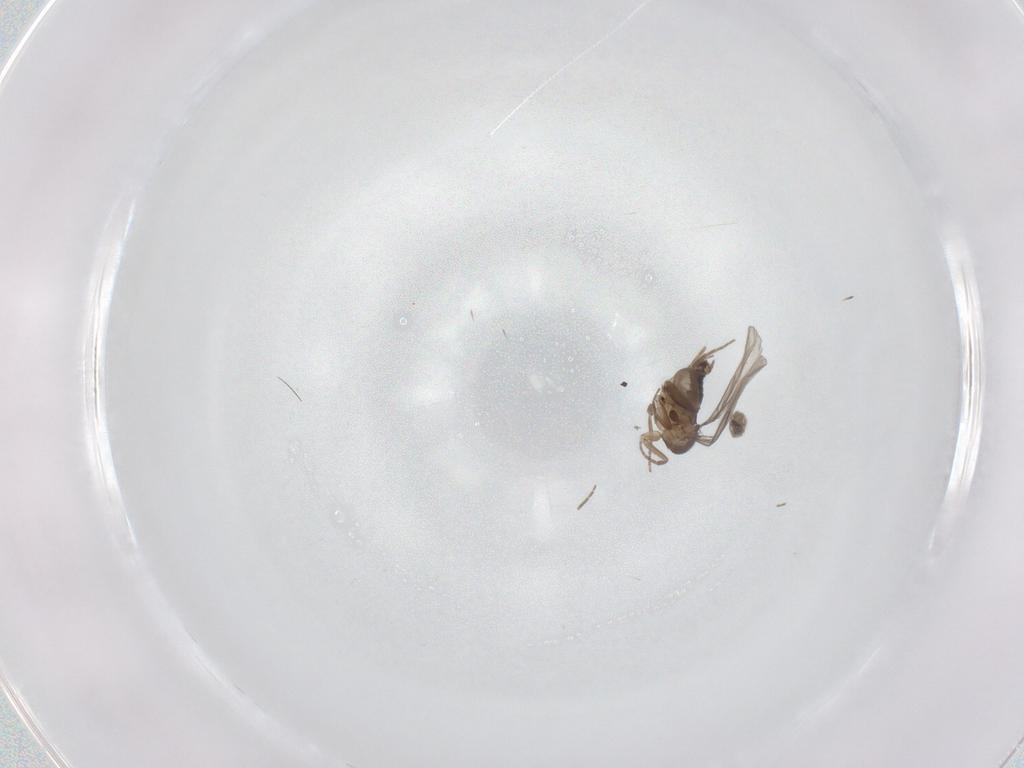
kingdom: Animalia
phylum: Arthropoda
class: Insecta
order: Diptera
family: Phoridae
